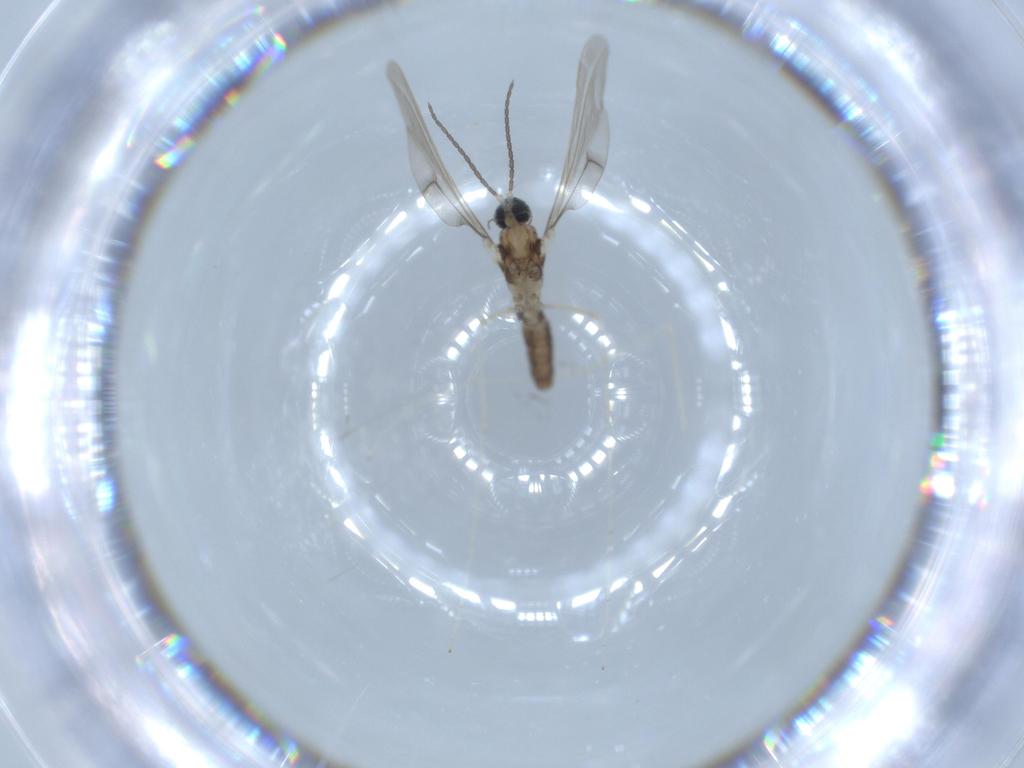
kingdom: Animalia
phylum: Arthropoda
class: Insecta
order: Diptera
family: Cecidomyiidae
